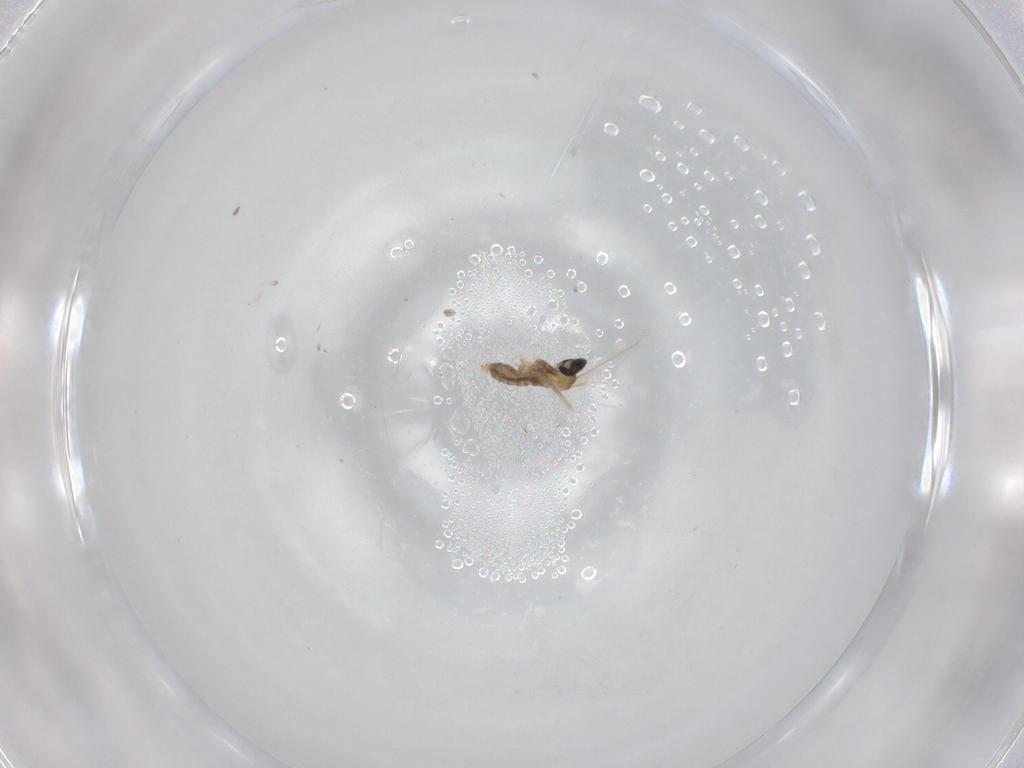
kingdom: Animalia
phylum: Arthropoda
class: Insecta
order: Diptera
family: Culicidae
